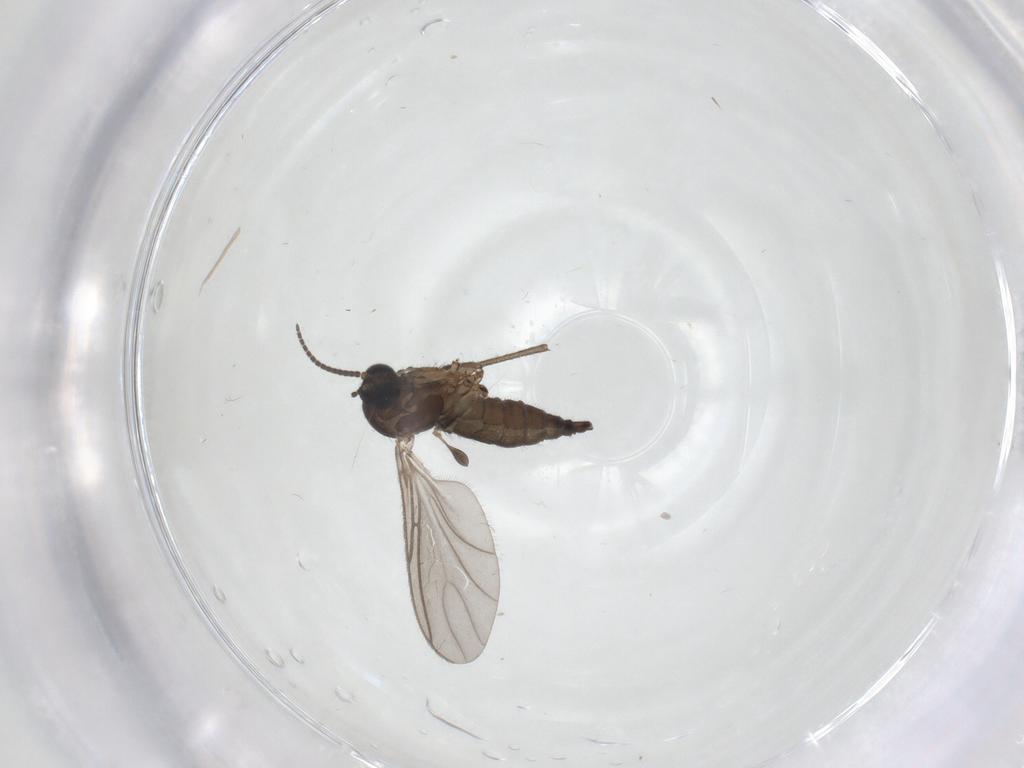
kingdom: Animalia
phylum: Arthropoda
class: Insecta
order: Diptera
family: Sciaridae
